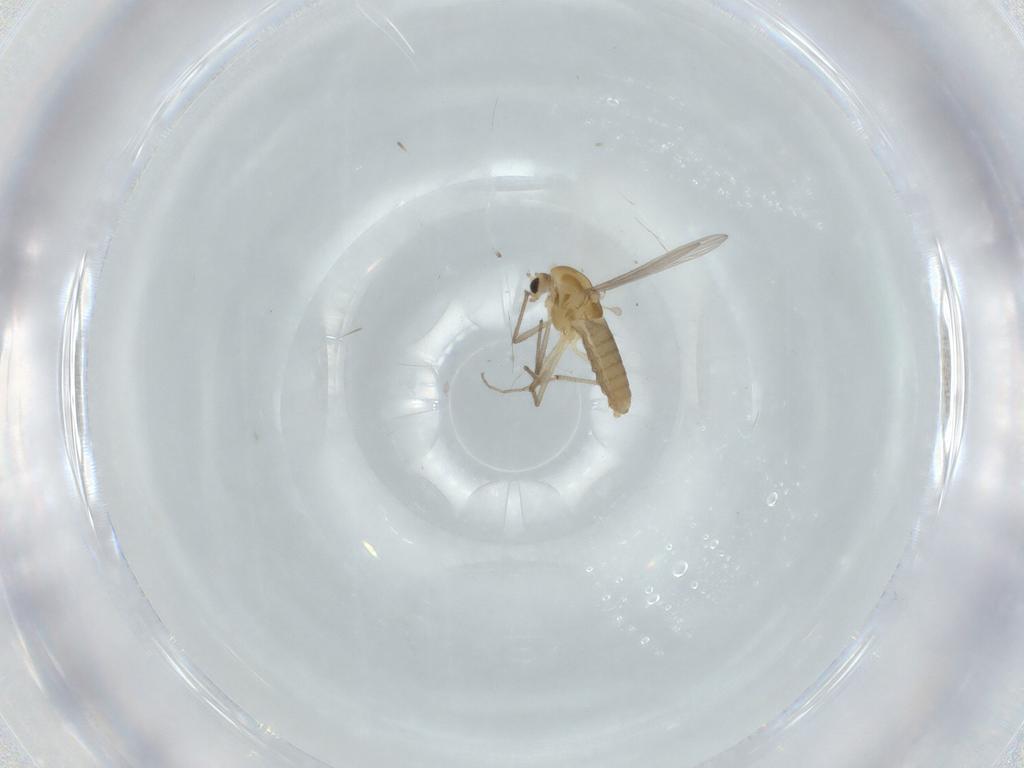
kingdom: Animalia
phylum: Arthropoda
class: Insecta
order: Diptera
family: Chironomidae
